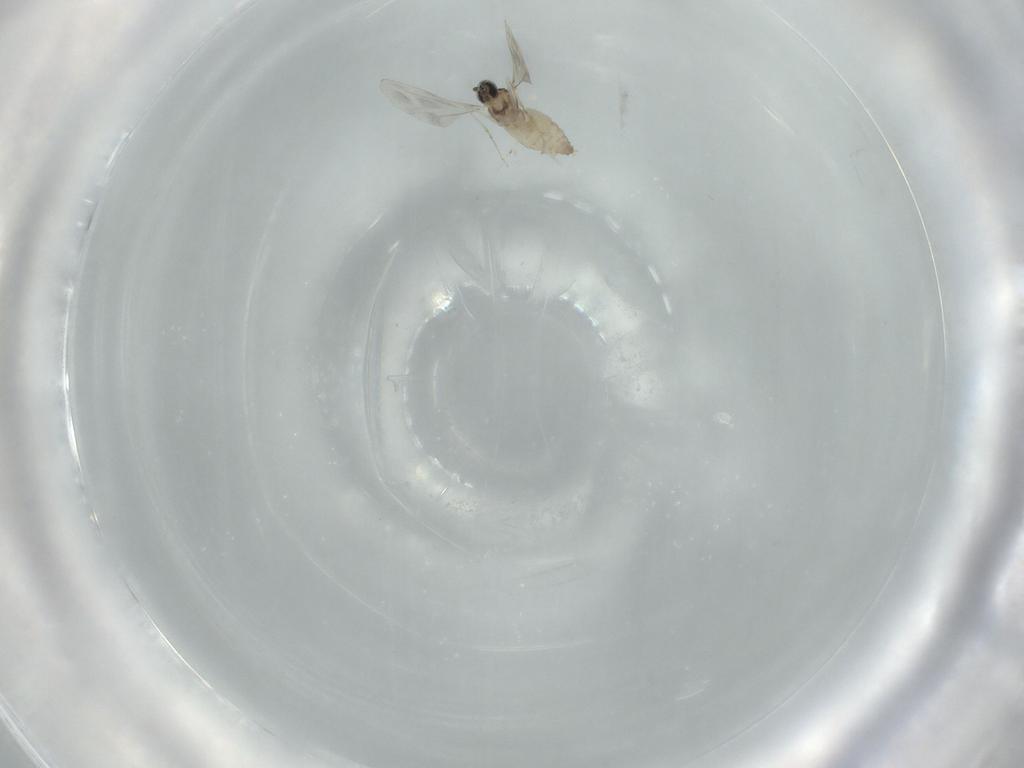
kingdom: Animalia
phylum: Arthropoda
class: Insecta
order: Diptera
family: Cecidomyiidae
